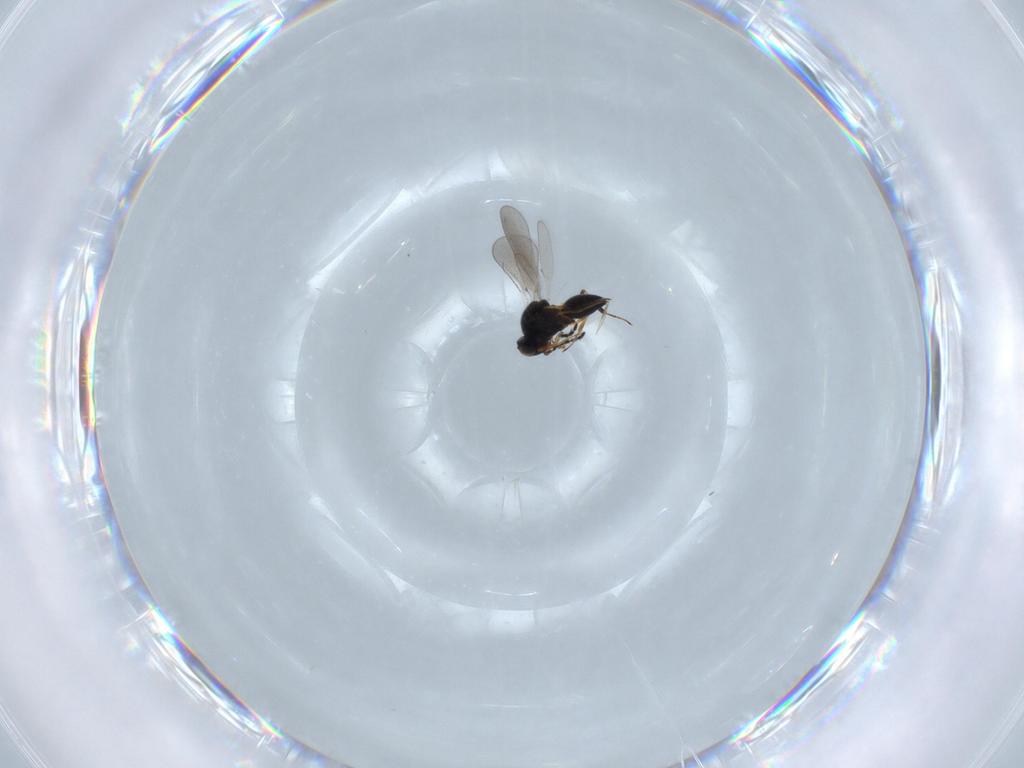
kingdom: Animalia
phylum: Arthropoda
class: Insecta
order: Hymenoptera
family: Platygastridae
